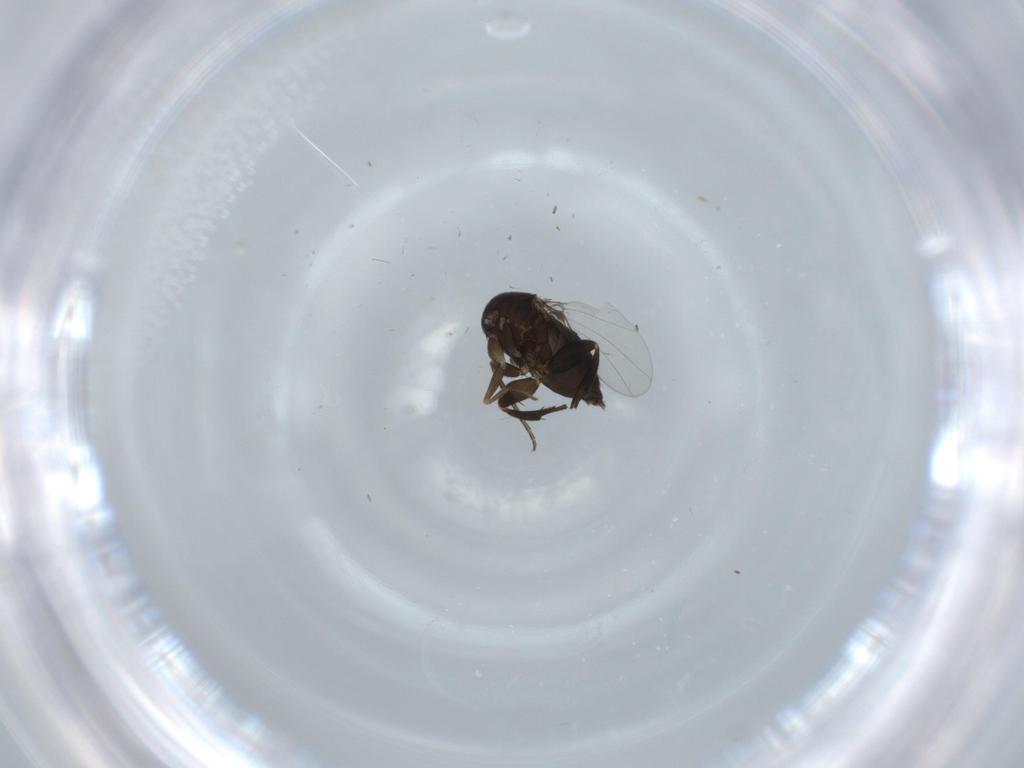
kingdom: Animalia
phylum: Arthropoda
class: Insecta
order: Diptera
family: Phoridae
